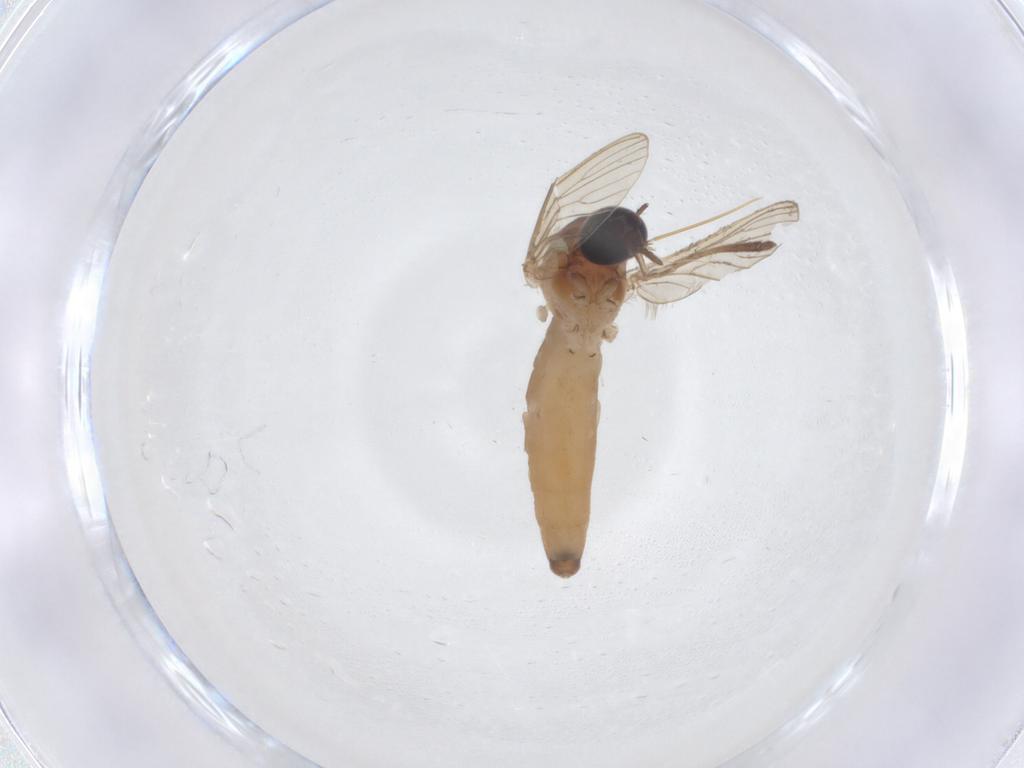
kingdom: Animalia
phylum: Arthropoda
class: Insecta
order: Diptera
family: Culicidae
